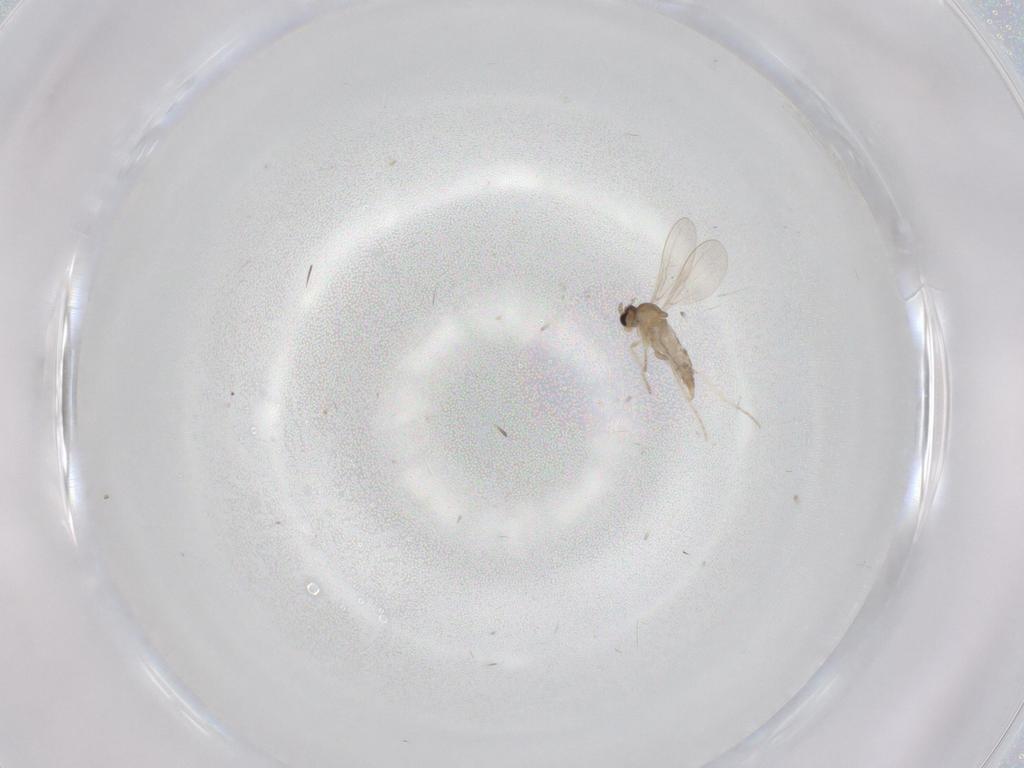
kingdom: Animalia
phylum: Arthropoda
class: Insecta
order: Diptera
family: Cecidomyiidae
